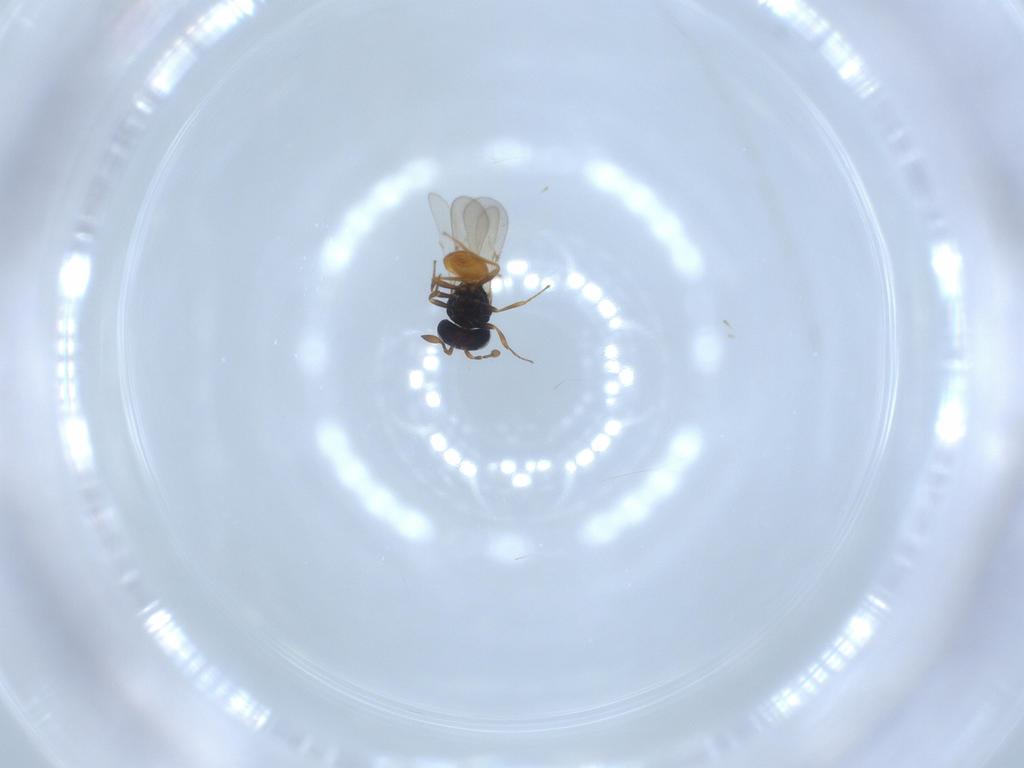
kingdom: Animalia
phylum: Arthropoda
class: Insecta
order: Hymenoptera
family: Scelionidae
